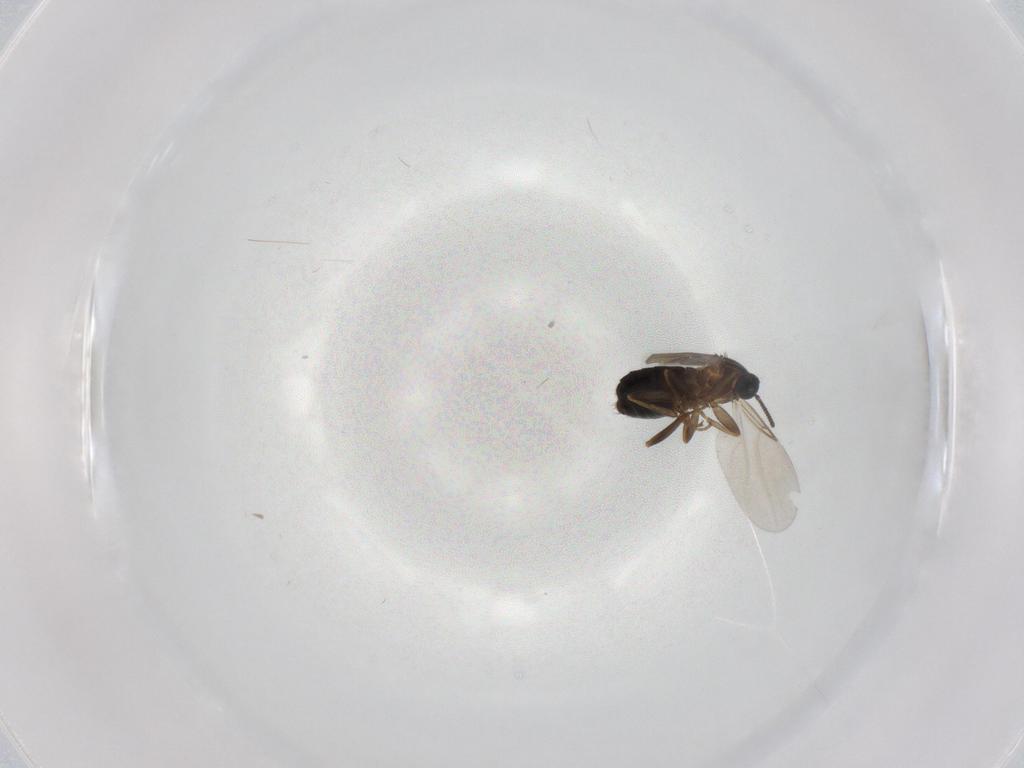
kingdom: Animalia
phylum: Arthropoda
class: Insecta
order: Diptera
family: Scatopsidae
